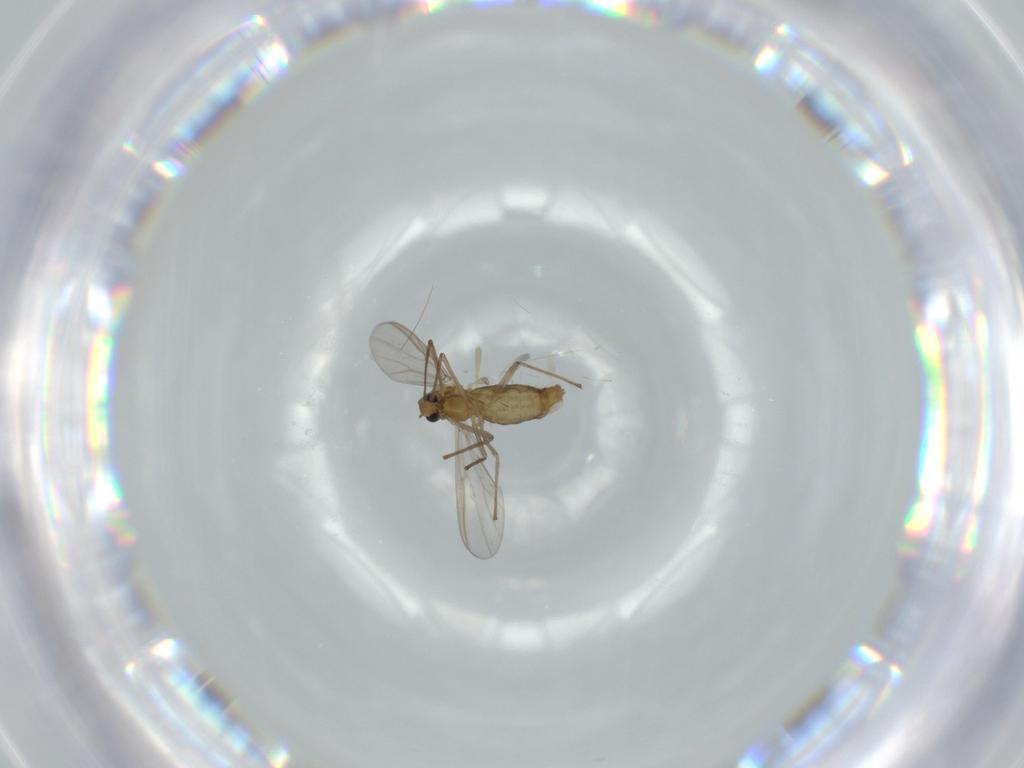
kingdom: Animalia
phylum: Arthropoda
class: Insecta
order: Diptera
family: Chironomidae
